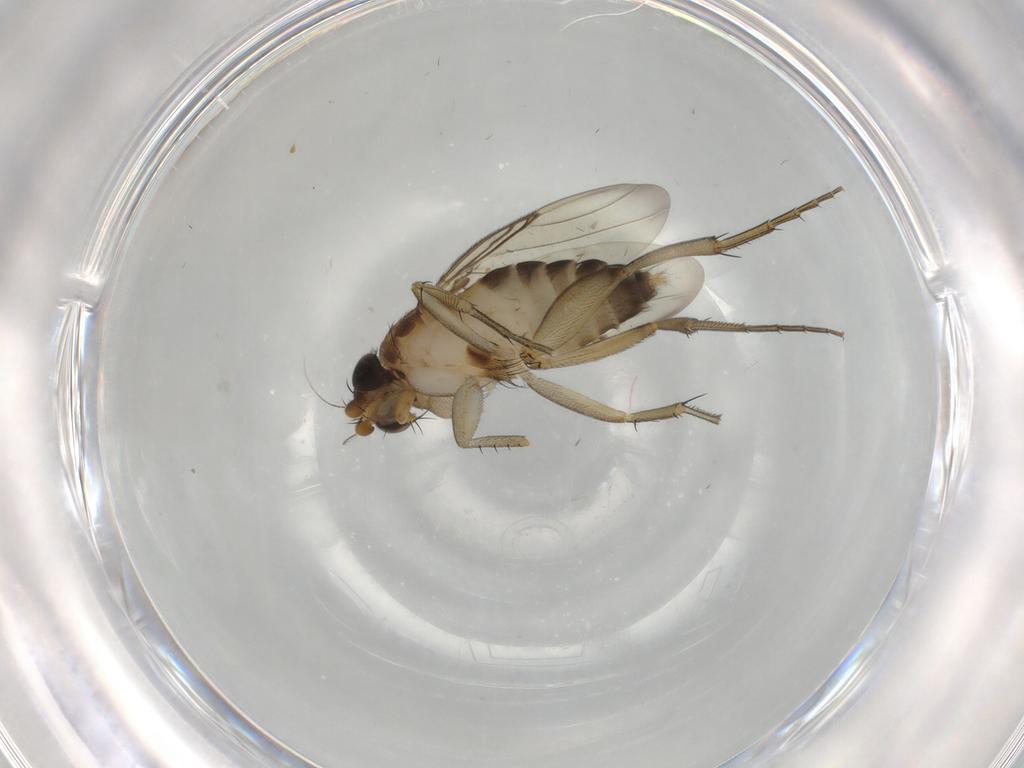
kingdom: Animalia
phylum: Arthropoda
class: Insecta
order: Diptera
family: Phoridae
